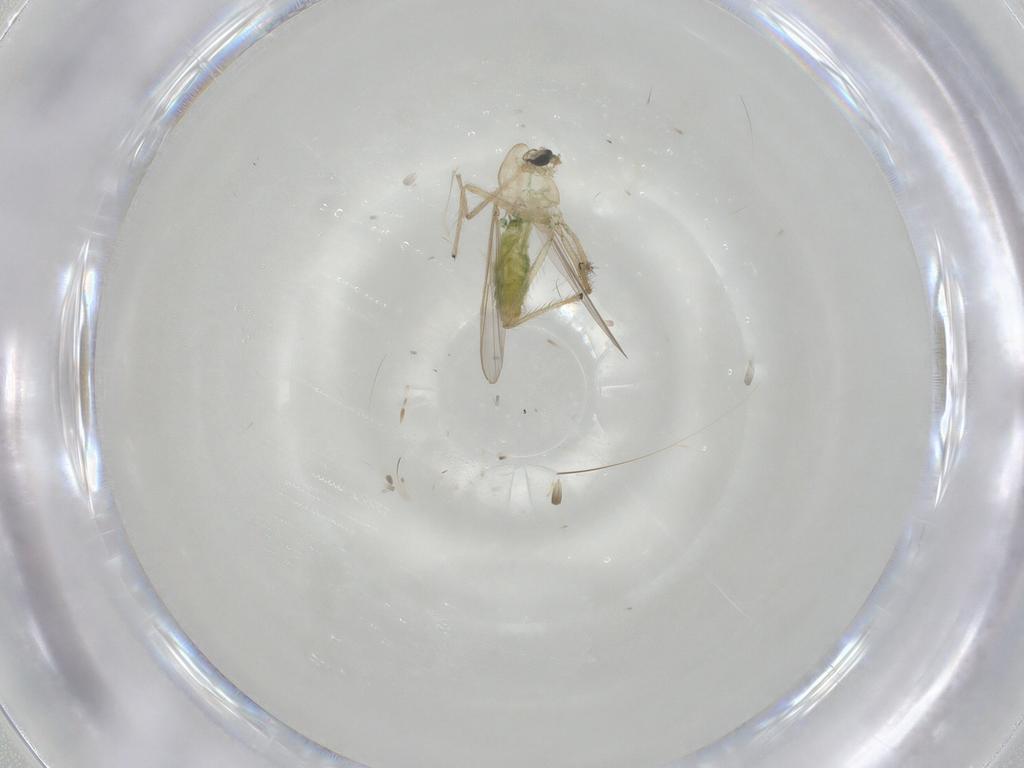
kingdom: Animalia
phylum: Arthropoda
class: Insecta
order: Diptera
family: Chironomidae
